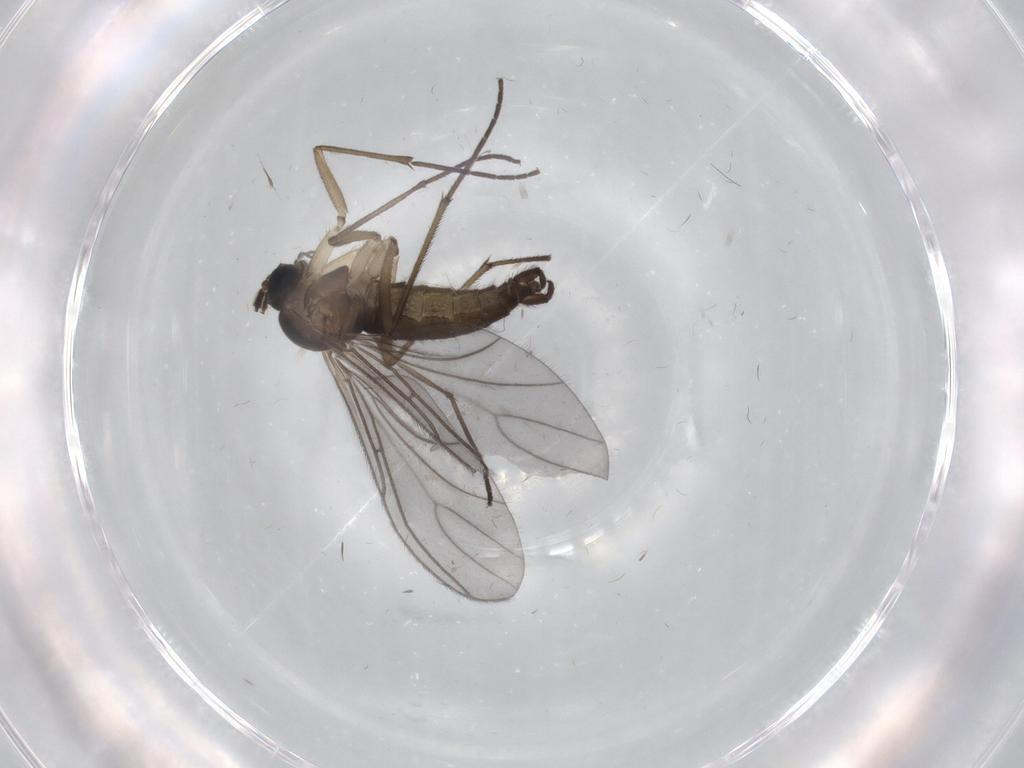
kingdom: Animalia
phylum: Arthropoda
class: Insecta
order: Diptera
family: Sciaridae
